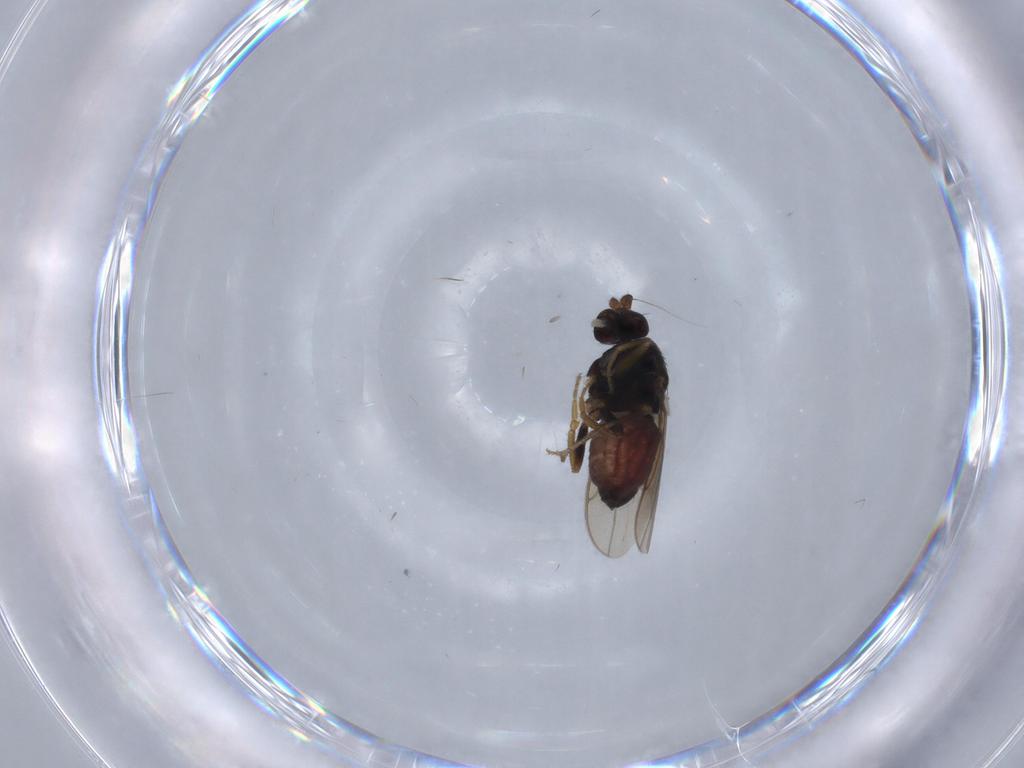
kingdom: Animalia
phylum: Arthropoda
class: Insecta
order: Diptera
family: Sphaeroceridae
